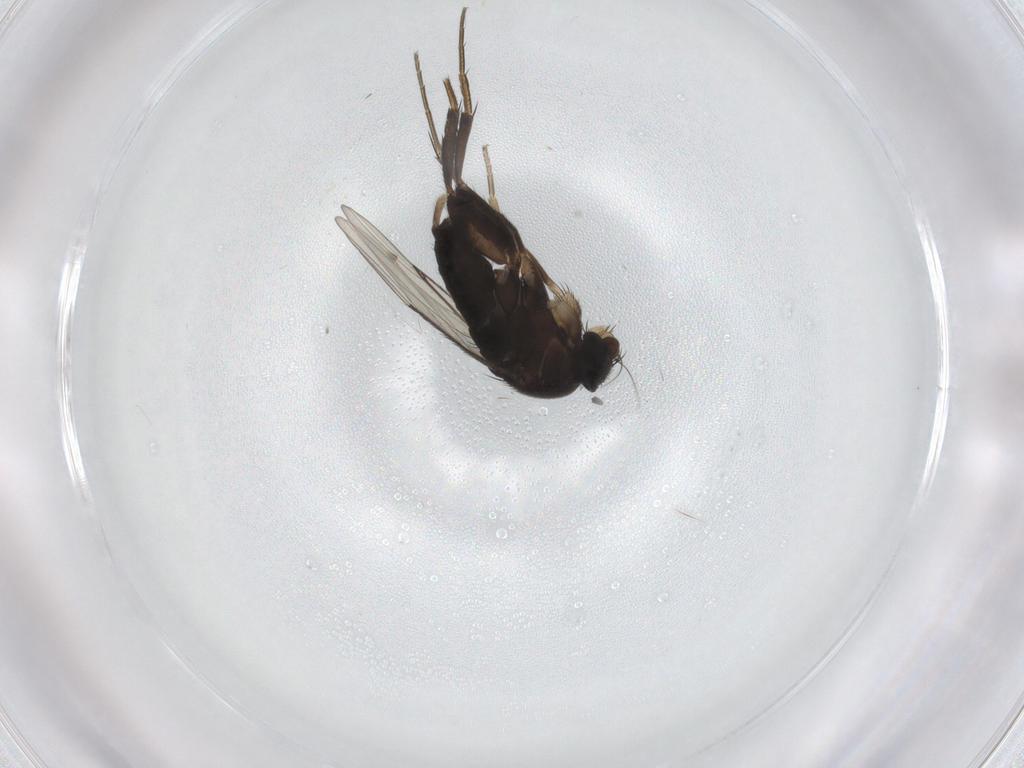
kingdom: Animalia
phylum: Arthropoda
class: Insecta
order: Diptera
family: Phoridae
